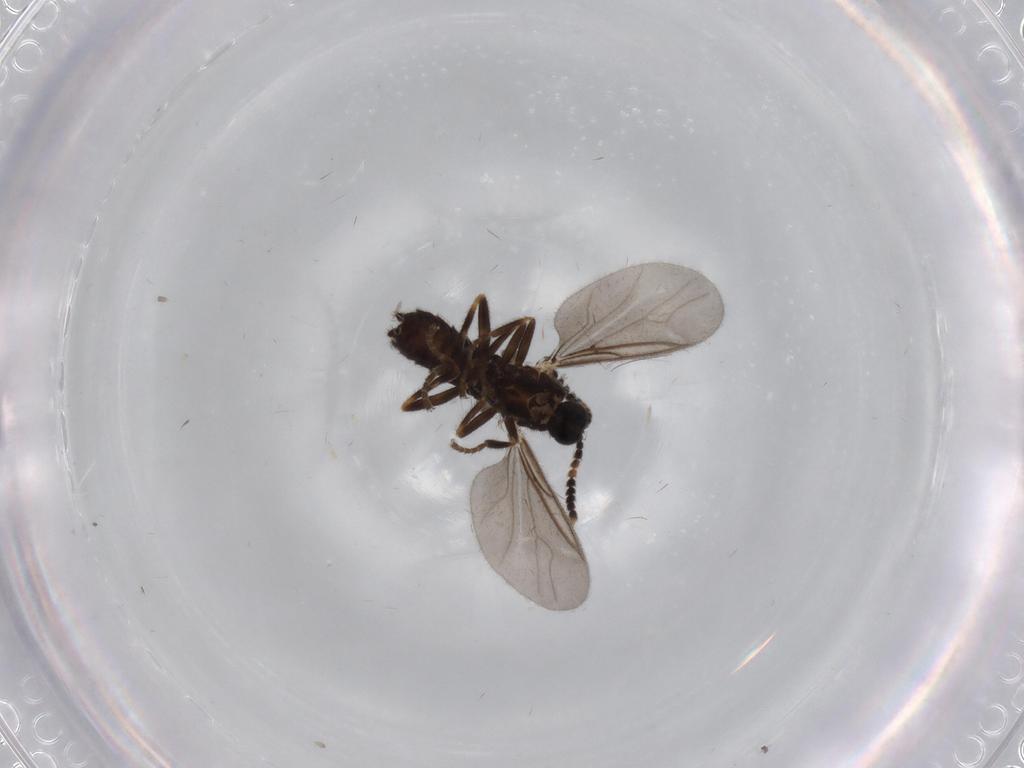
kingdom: Animalia
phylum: Arthropoda
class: Insecta
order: Diptera
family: Scatopsidae
